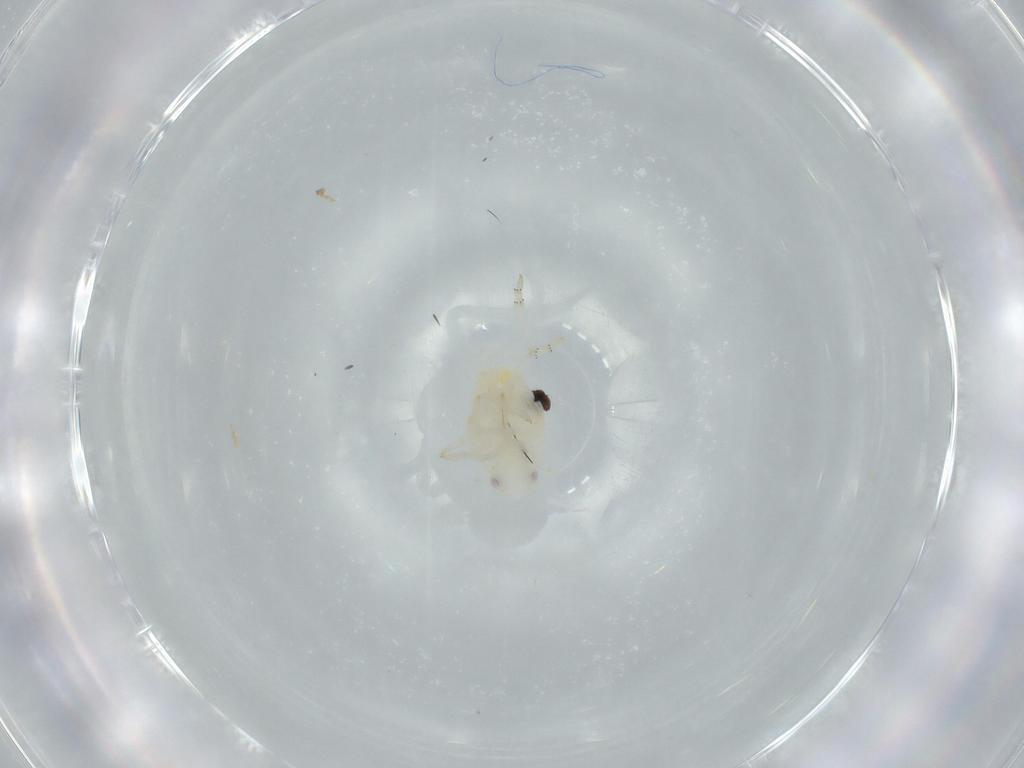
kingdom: Animalia
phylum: Arthropoda
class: Insecta
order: Hemiptera
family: Flatidae
